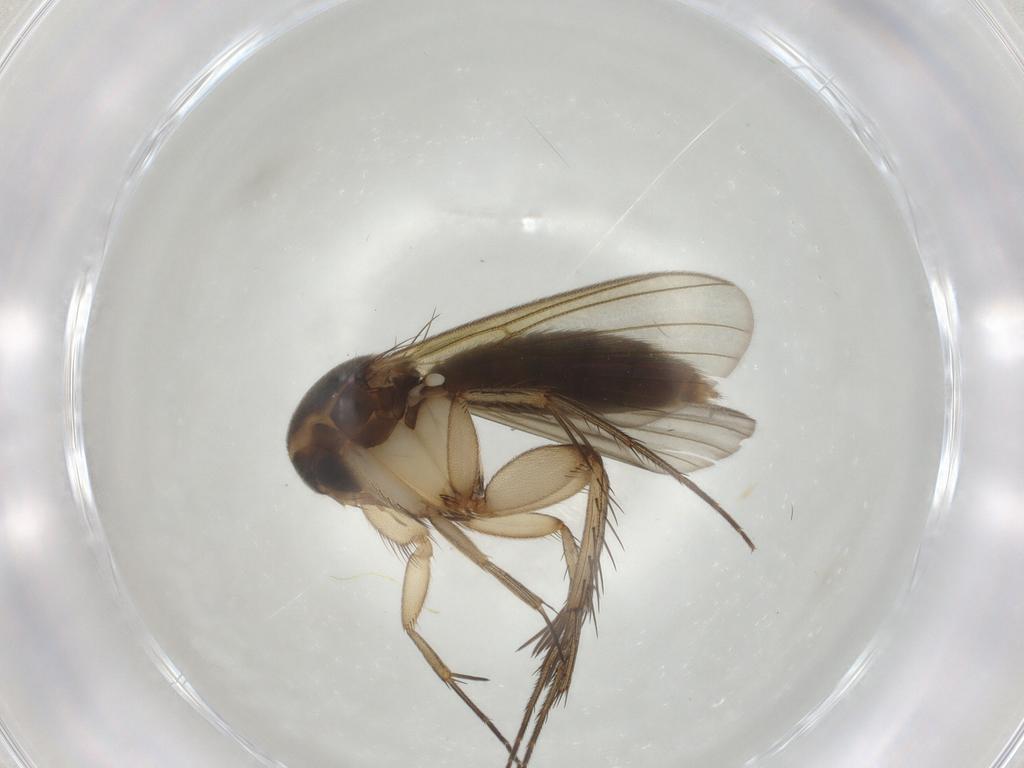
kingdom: Animalia
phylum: Arthropoda
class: Insecta
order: Diptera
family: Mycetophilidae
